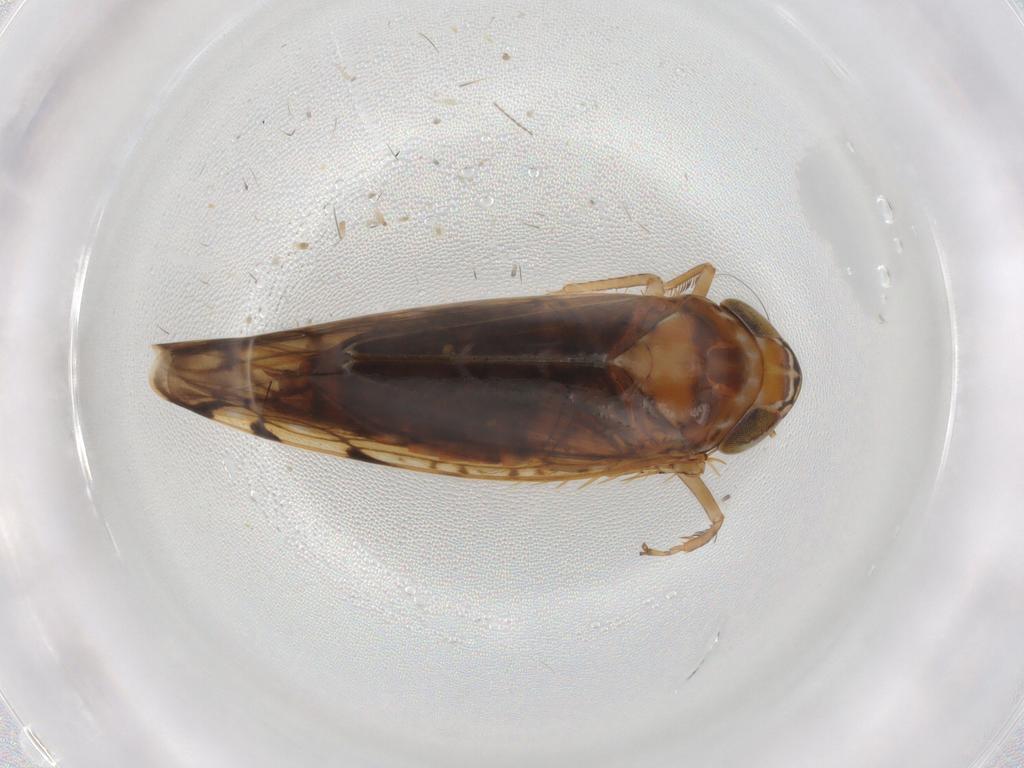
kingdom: Animalia
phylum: Arthropoda
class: Insecta
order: Hemiptera
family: Cicadellidae
